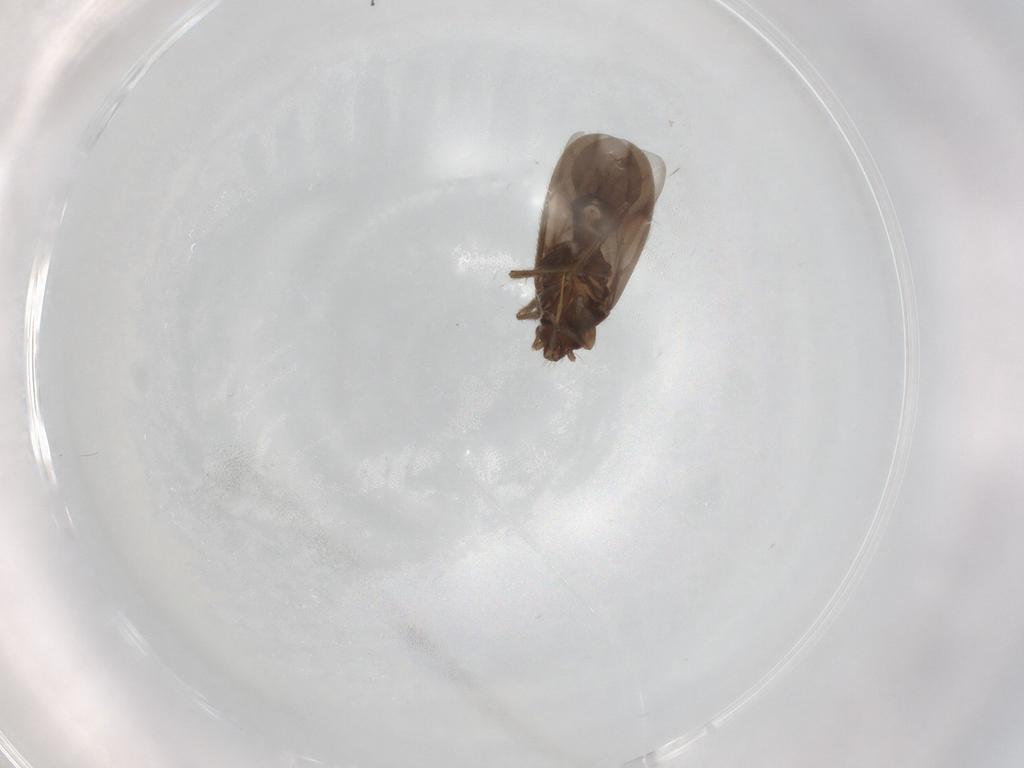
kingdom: Animalia
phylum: Arthropoda
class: Insecta
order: Hemiptera
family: Ceratocombidae
